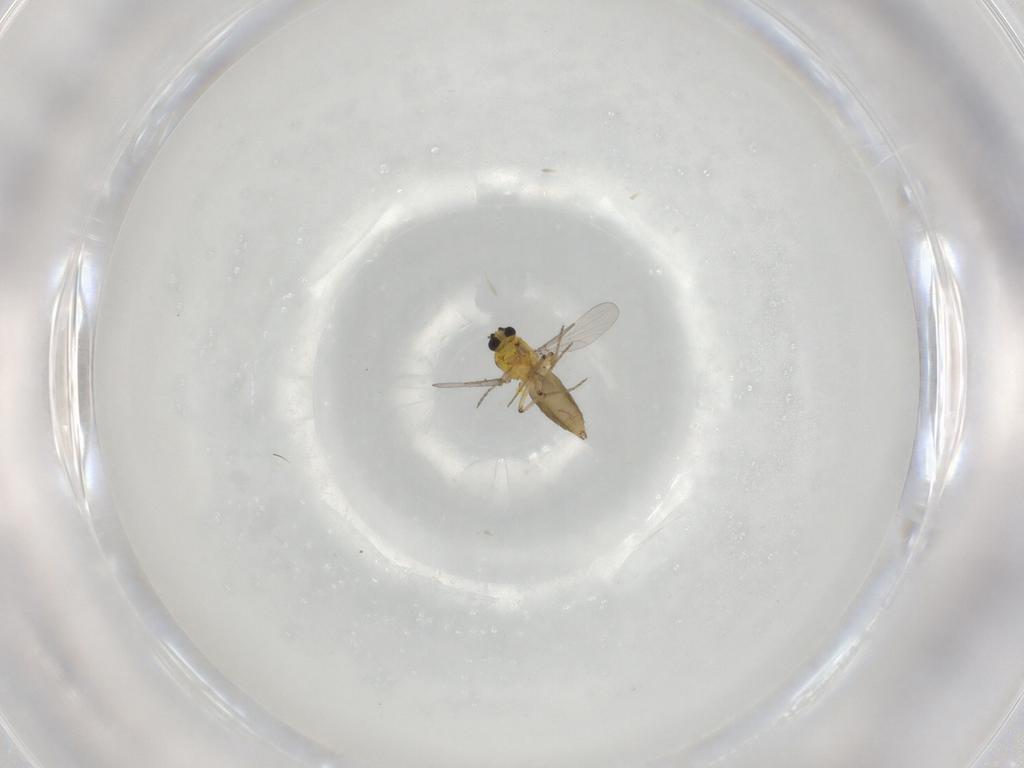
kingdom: Animalia
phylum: Arthropoda
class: Insecta
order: Diptera
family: Ceratopogonidae
